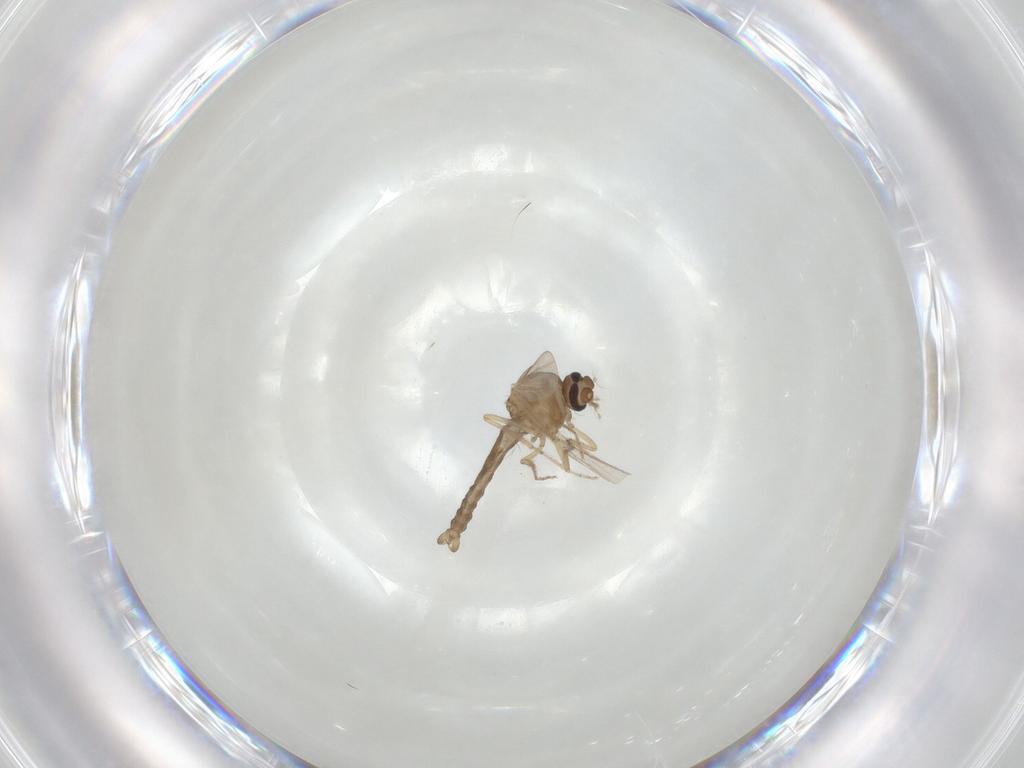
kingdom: Animalia
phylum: Arthropoda
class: Insecta
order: Diptera
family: Ceratopogonidae
